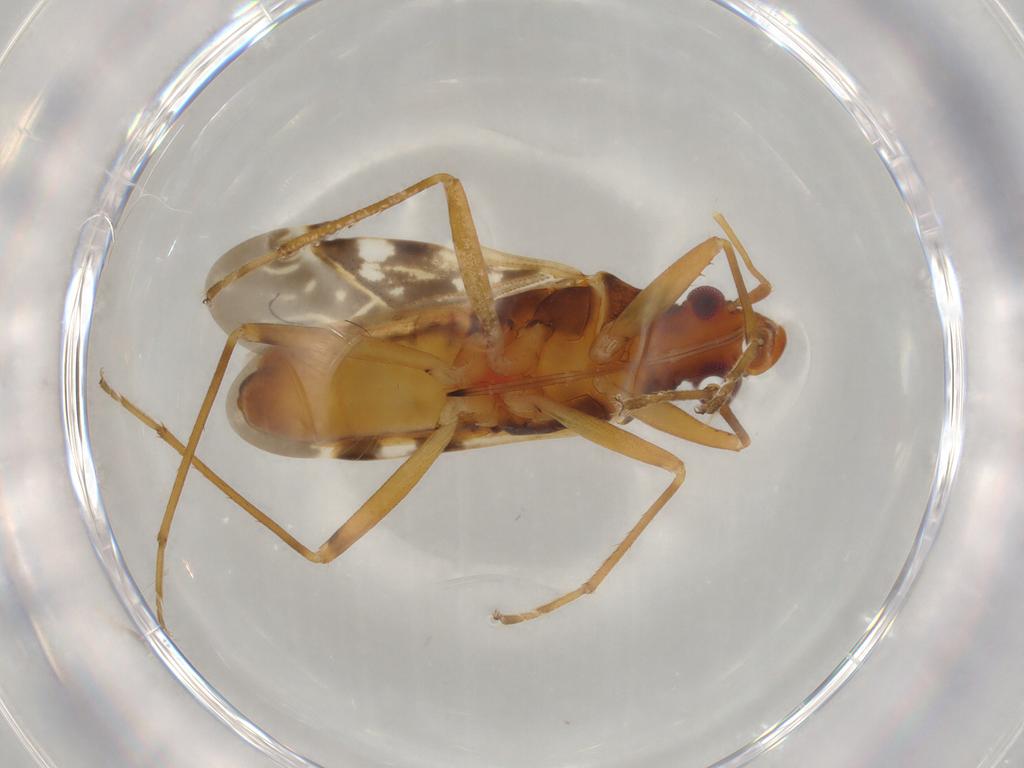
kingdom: Animalia
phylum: Arthropoda
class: Insecta
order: Hemiptera
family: Rhyparochromidae
